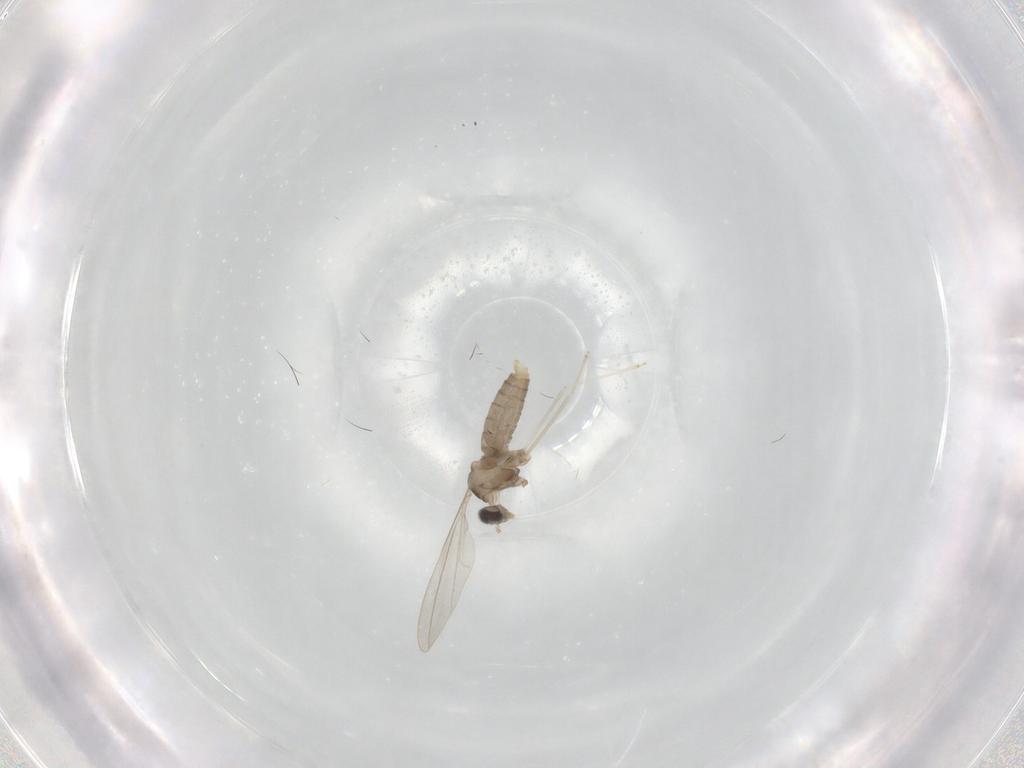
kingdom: Animalia
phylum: Arthropoda
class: Insecta
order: Diptera
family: Cecidomyiidae
